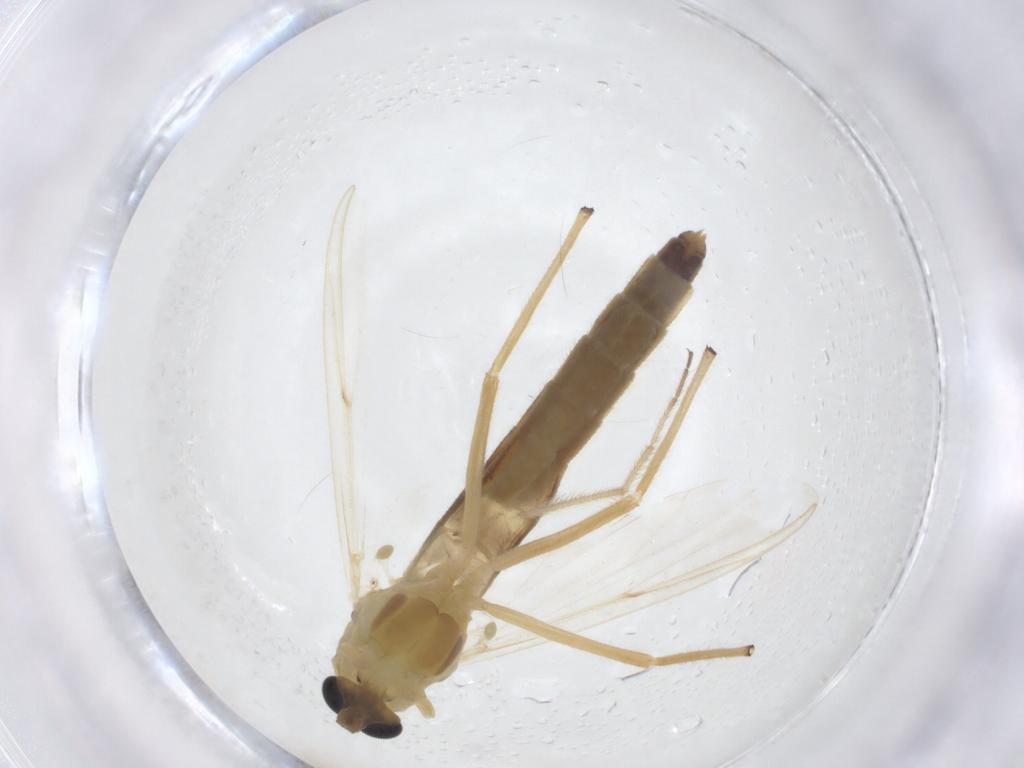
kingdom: Animalia
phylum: Arthropoda
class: Insecta
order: Diptera
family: Chironomidae
